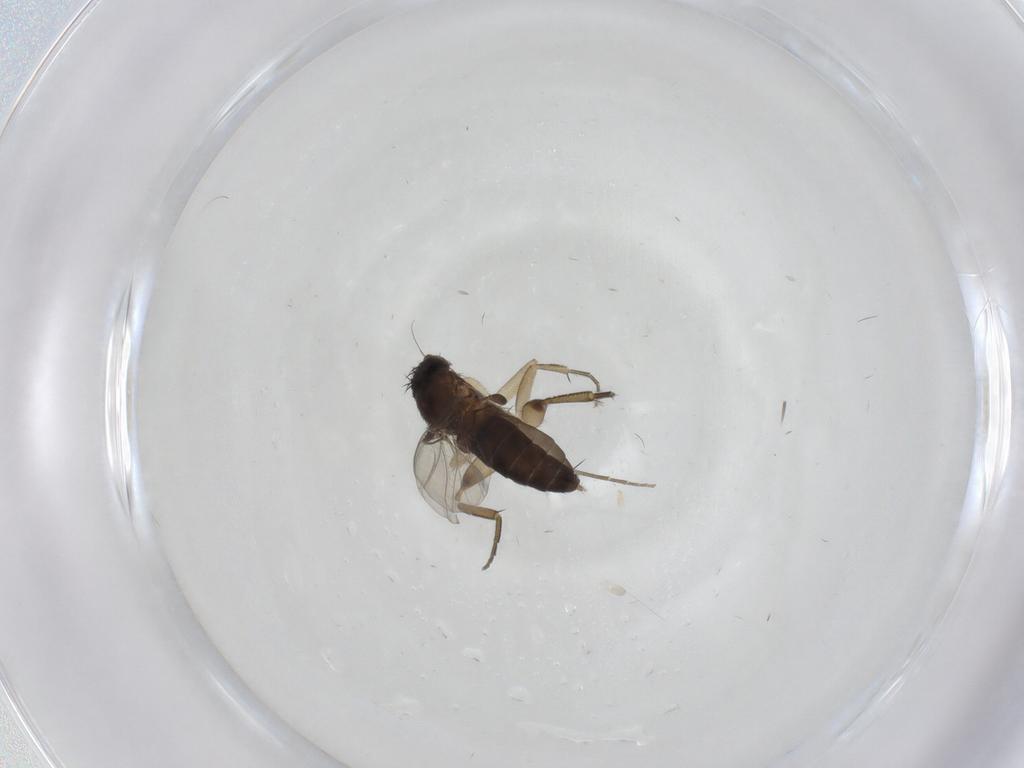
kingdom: Animalia
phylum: Arthropoda
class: Insecta
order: Diptera
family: Phoridae
